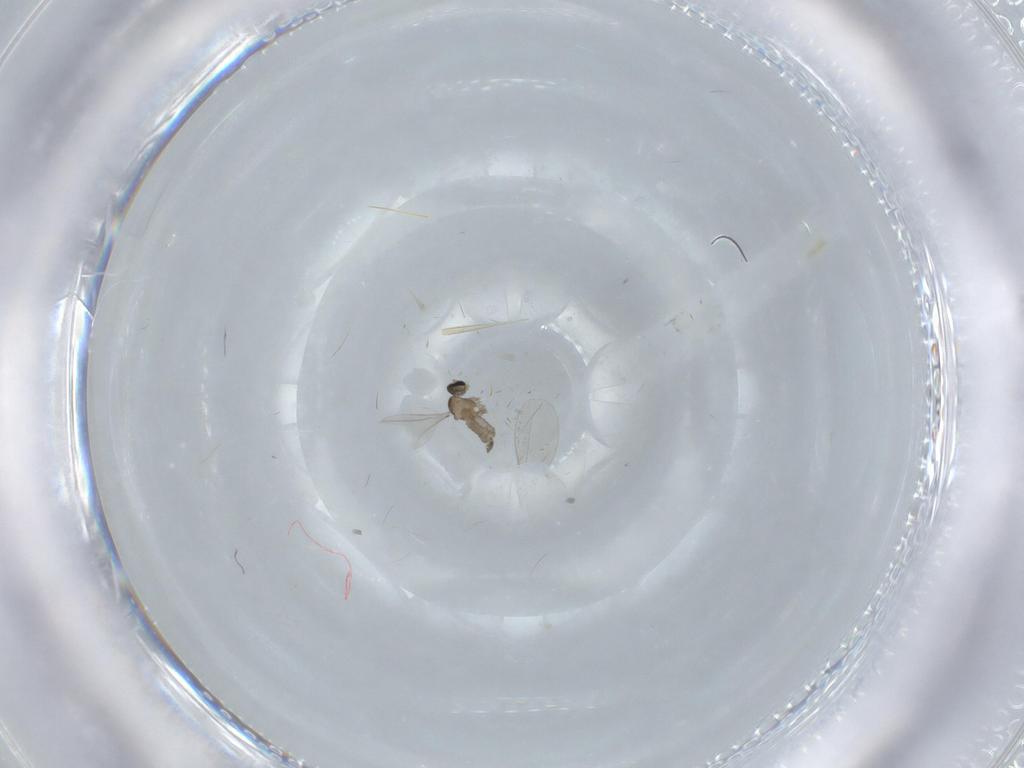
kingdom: Animalia
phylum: Arthropoda
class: Insecta
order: Diptera
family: Cecidomyiidae
